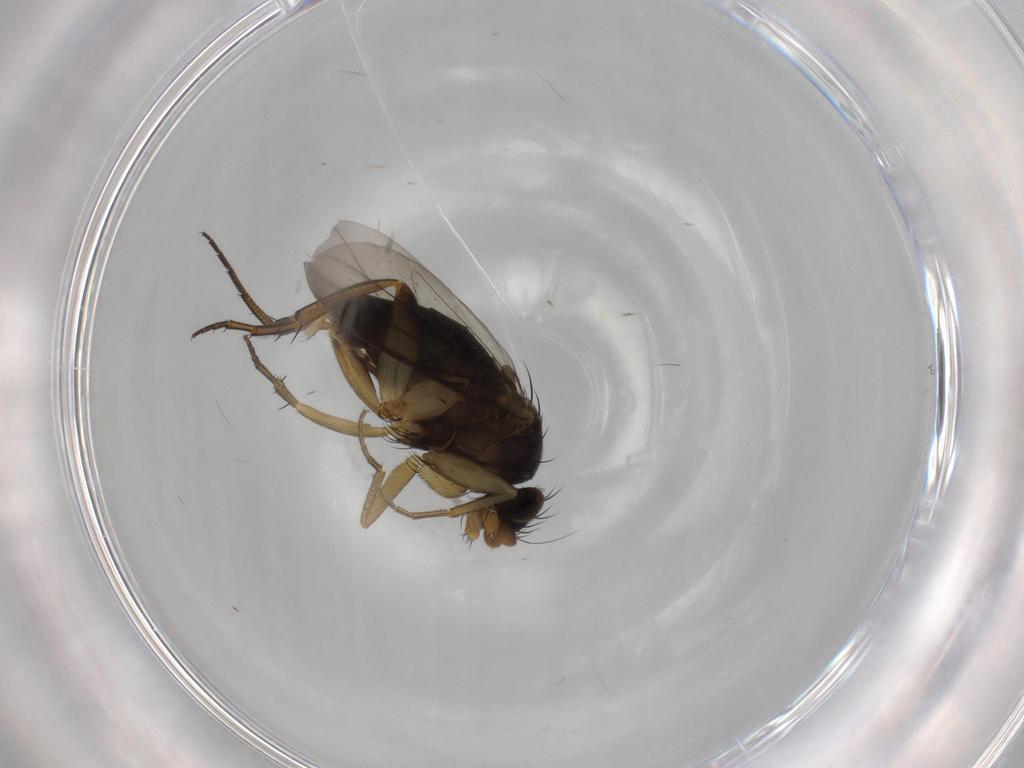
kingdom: Animalia
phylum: Arthropoda
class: Insecta
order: Diptera
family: Phoridae
